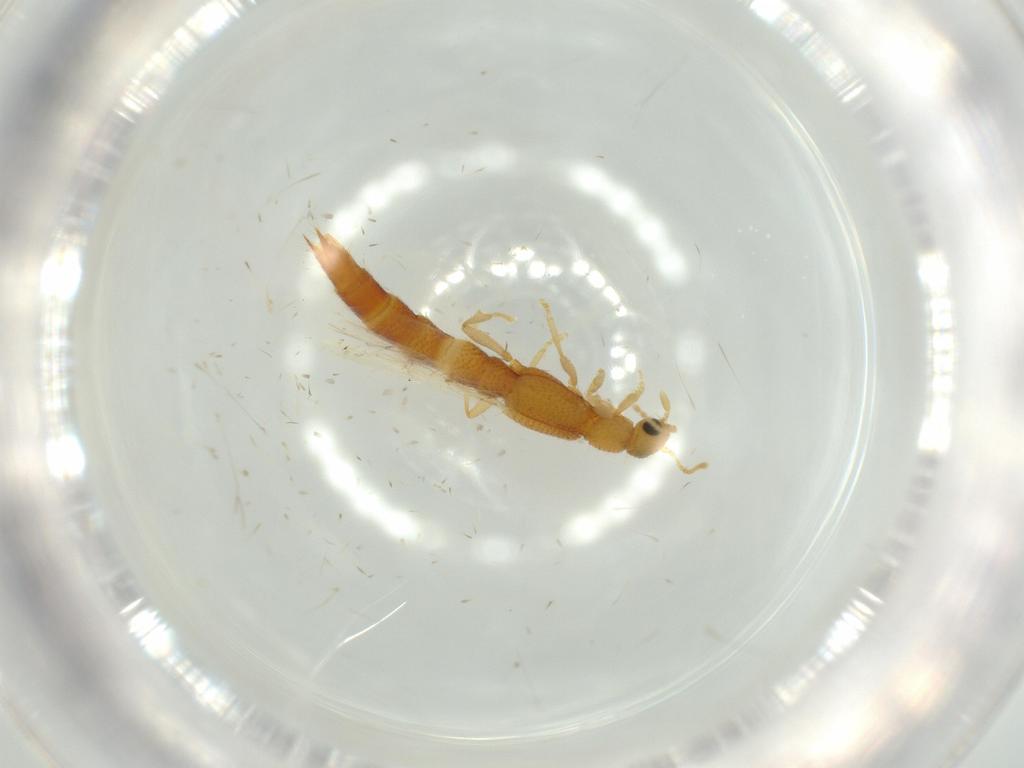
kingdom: Animalia
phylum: Arthropoda
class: Insecta
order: Coleoptera
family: Staphylinidae
